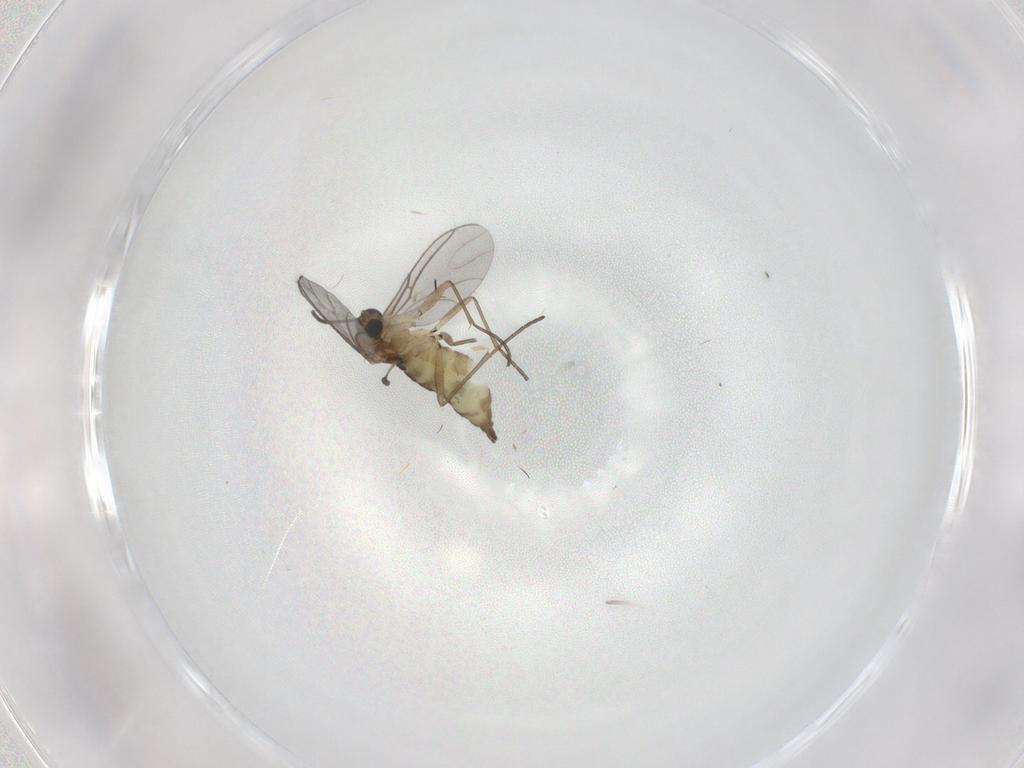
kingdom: Animalia
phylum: Arthropoda
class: Insecta
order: Diptera
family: Sciaridae
